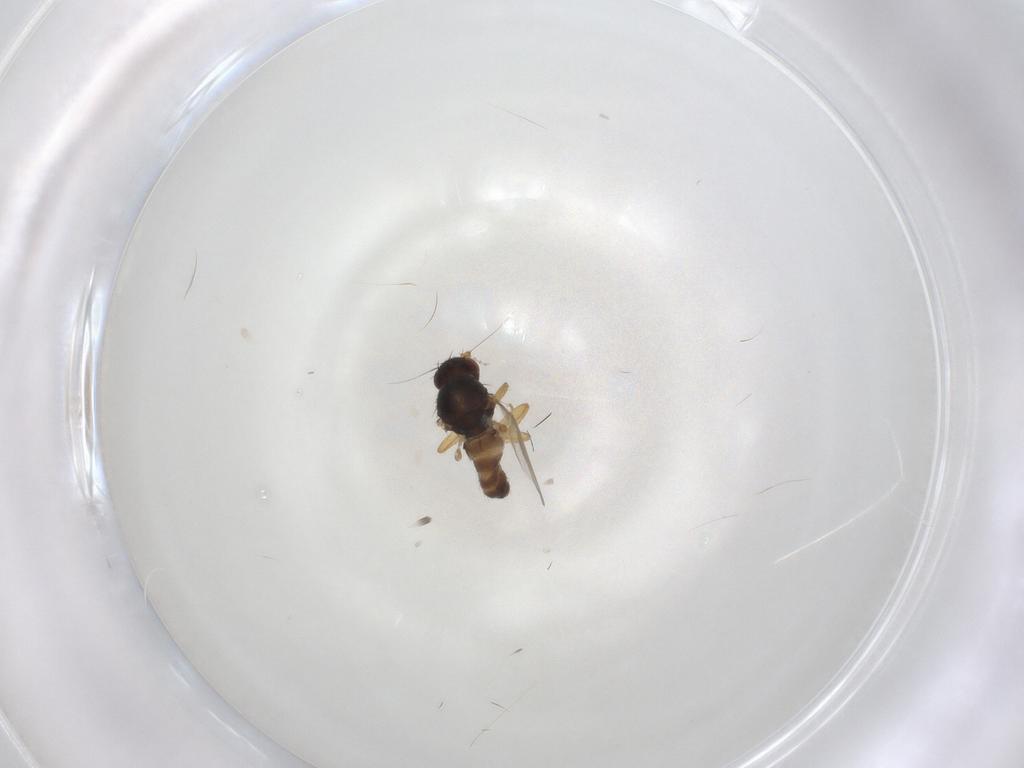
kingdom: Animalia
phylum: Arthropoda
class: Insecta
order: Diptera
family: Sphaeroceridae
